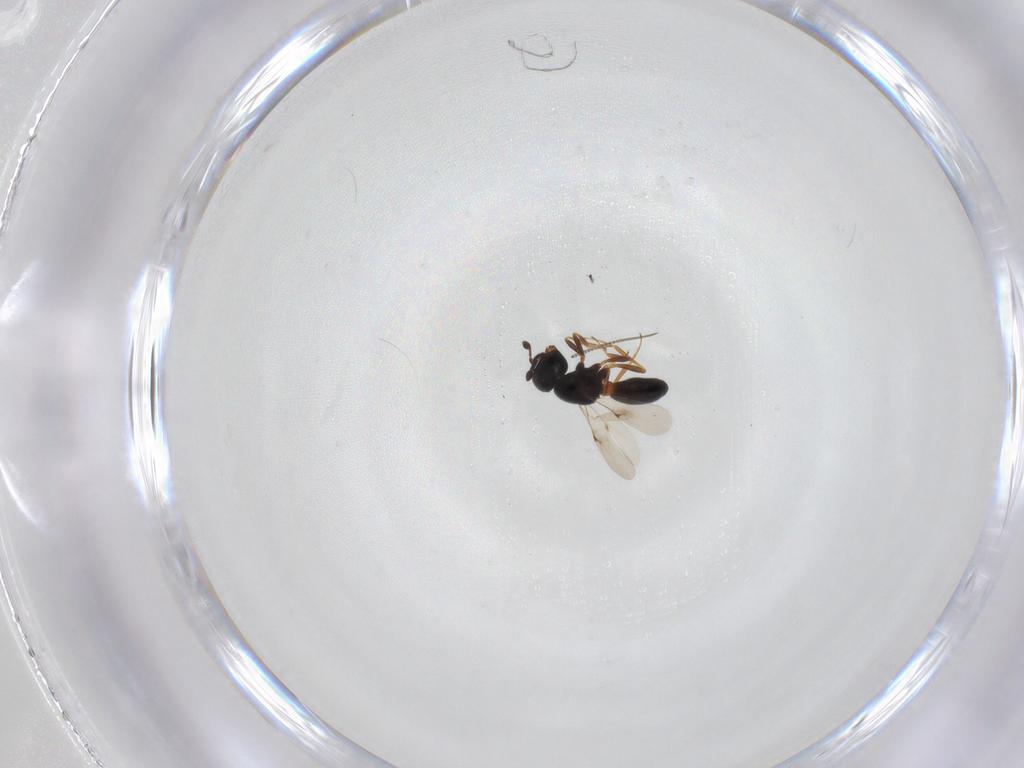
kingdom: Animalia
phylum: Arthropoda
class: Insecta
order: Hymenoptera
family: Scelionidae
